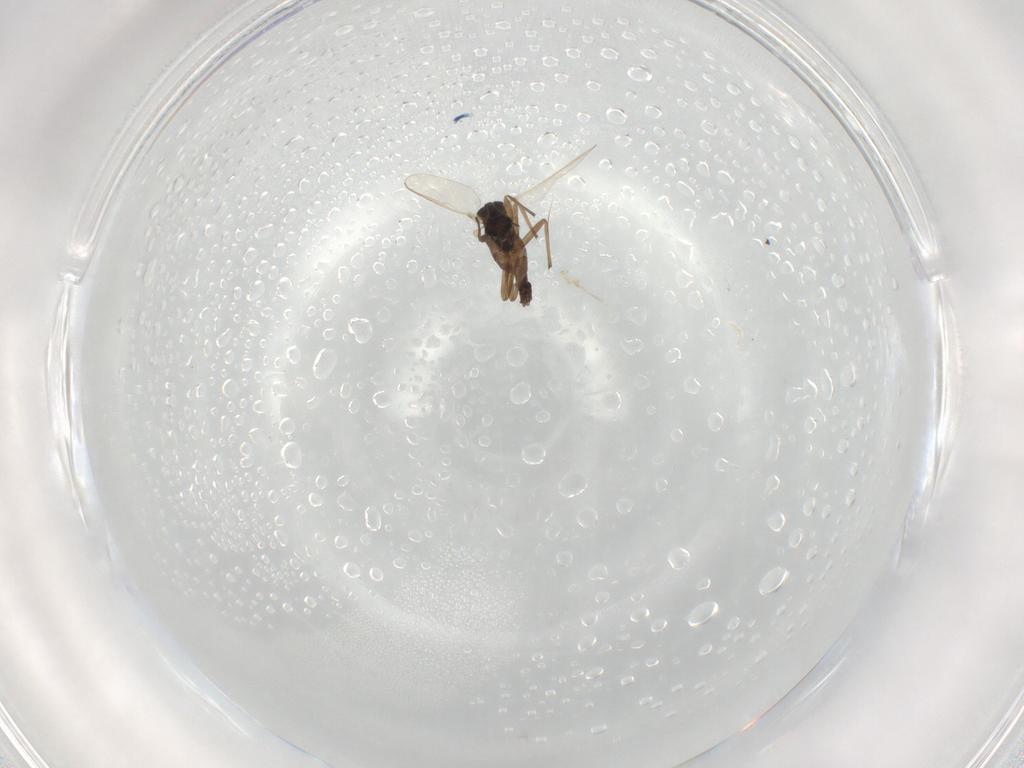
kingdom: Animalia
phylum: Arthropoda
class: Insecta
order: Diptera
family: Chironomidae
